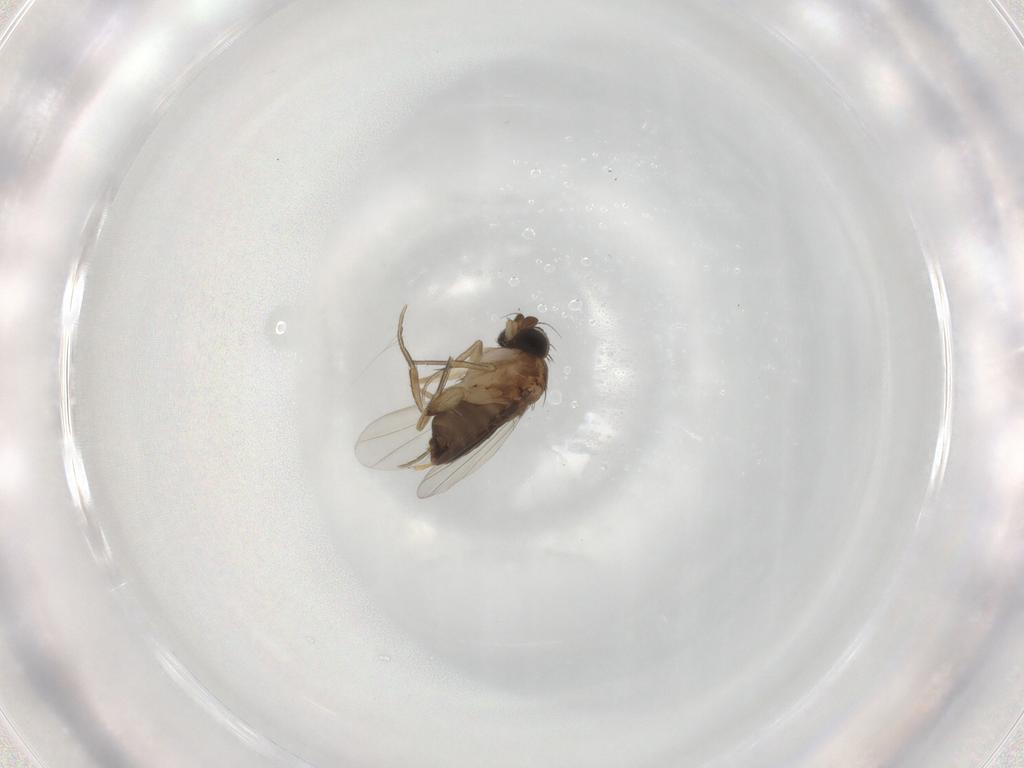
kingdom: Animalia
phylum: Arthropoda
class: Insecta
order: Diptera
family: Phoridae
